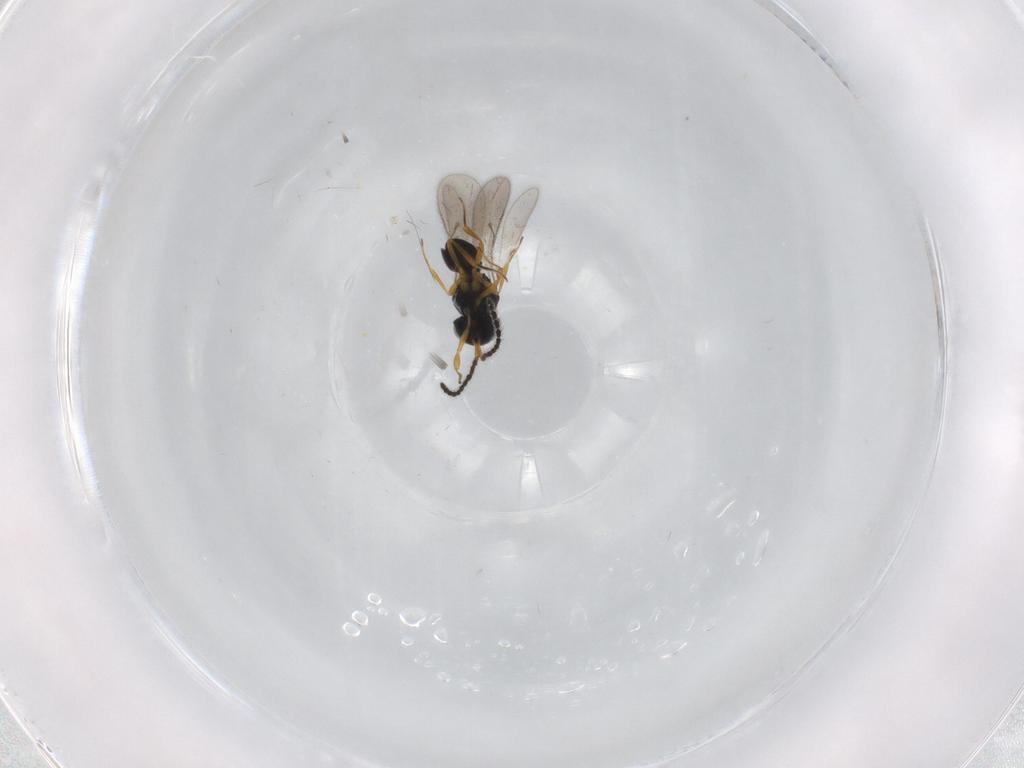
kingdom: Animalia
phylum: Arthropoda
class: Insecta
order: Hymenoptera
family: Scelionidae
